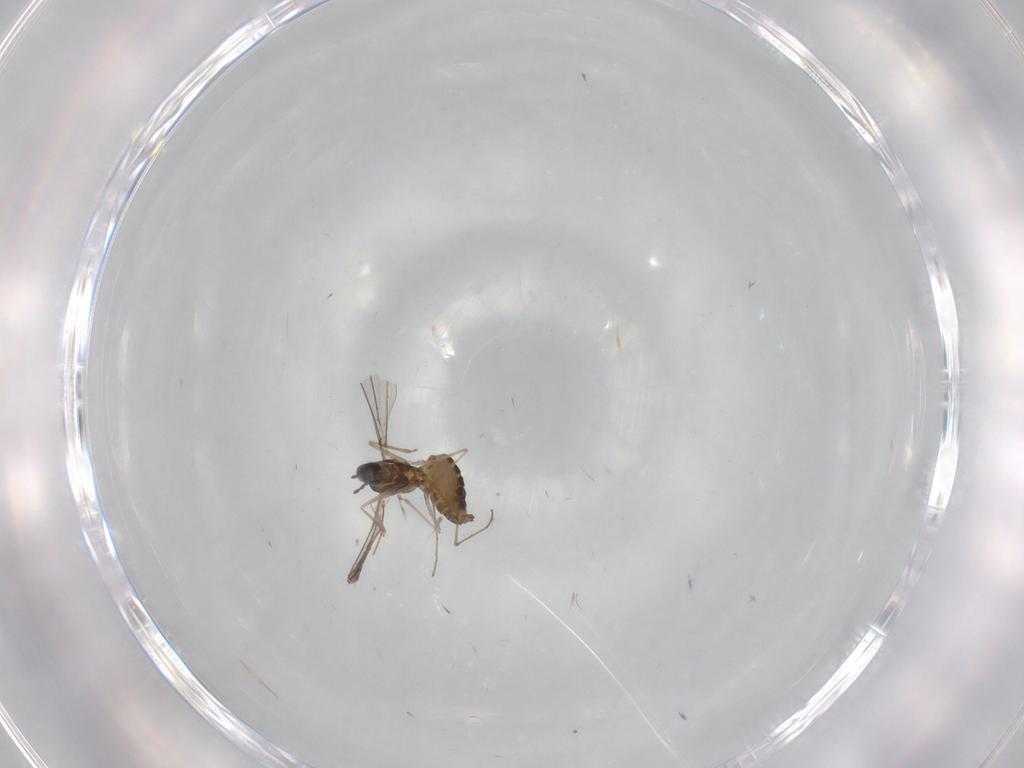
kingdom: Animalia
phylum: Arthropoda
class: Insecta
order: Diptera
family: Cecidomyiidae
